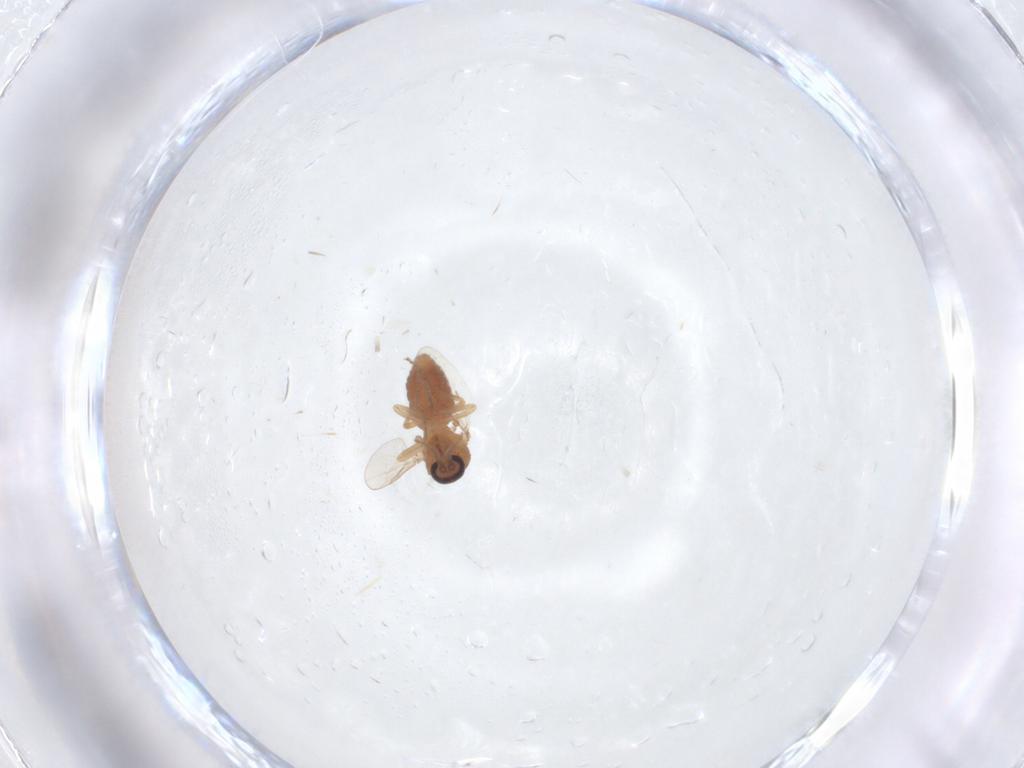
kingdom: Animalia
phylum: Arthropoda
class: Insecta
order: Diptera
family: Ceratopogonidae
